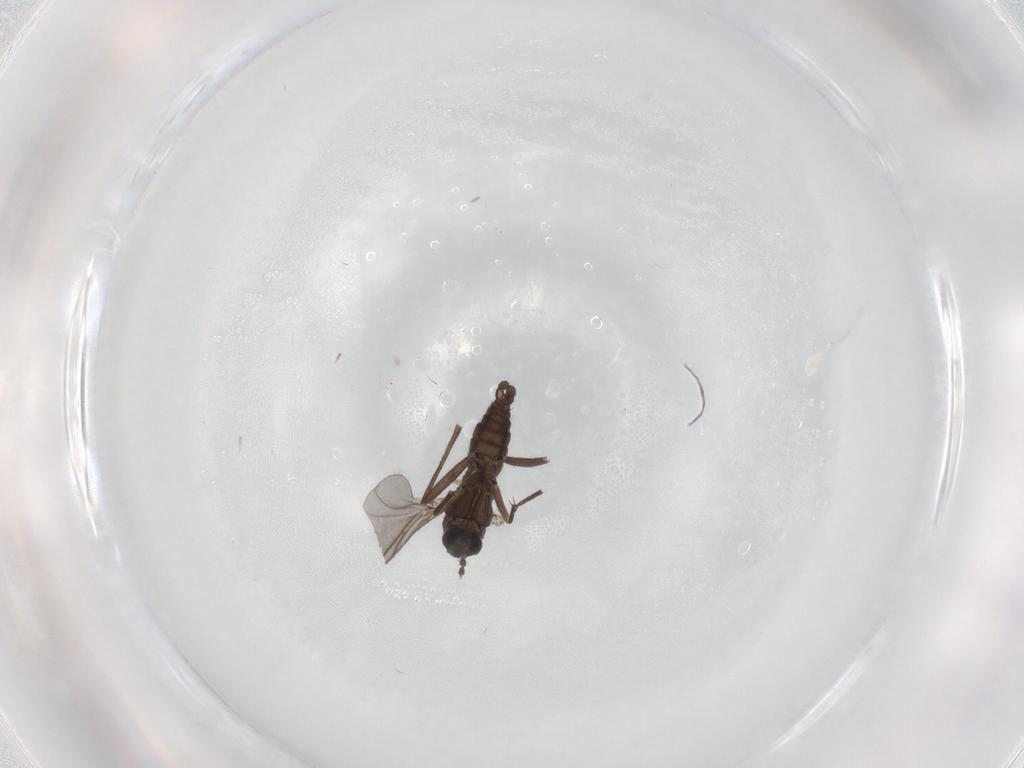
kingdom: Animalia
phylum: Arthropoda
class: Insecta
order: Diptera
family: Sciaridae
